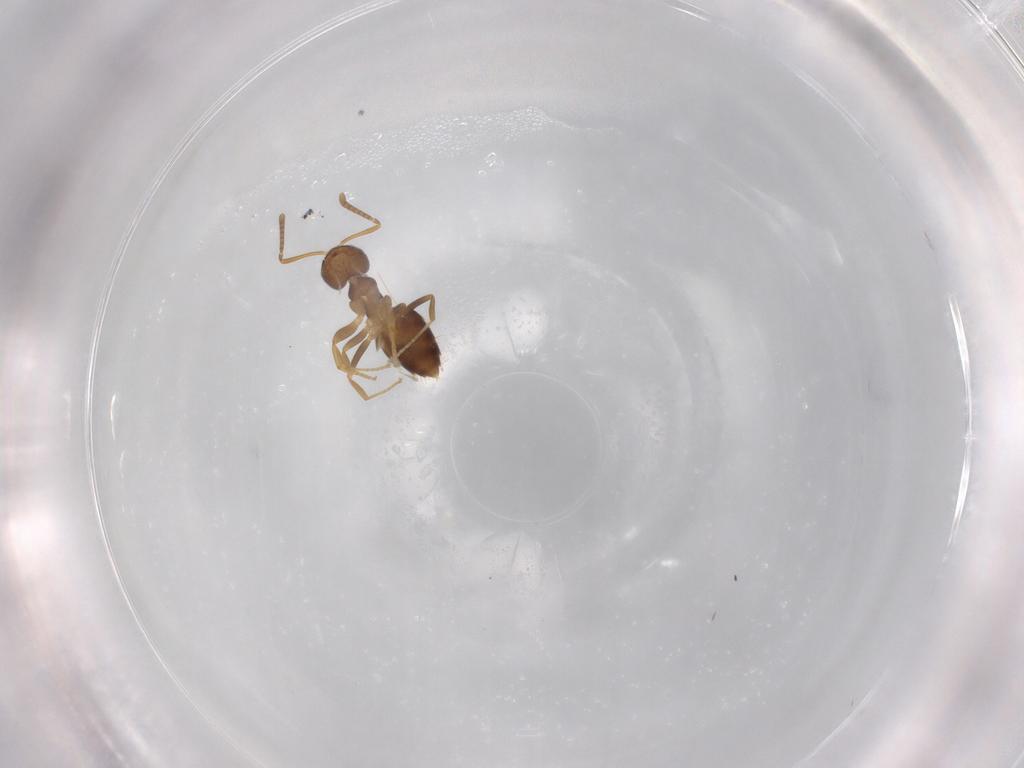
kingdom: Animalia
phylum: Arthropoda
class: Insecta
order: Hymenoptera
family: Formicidae
